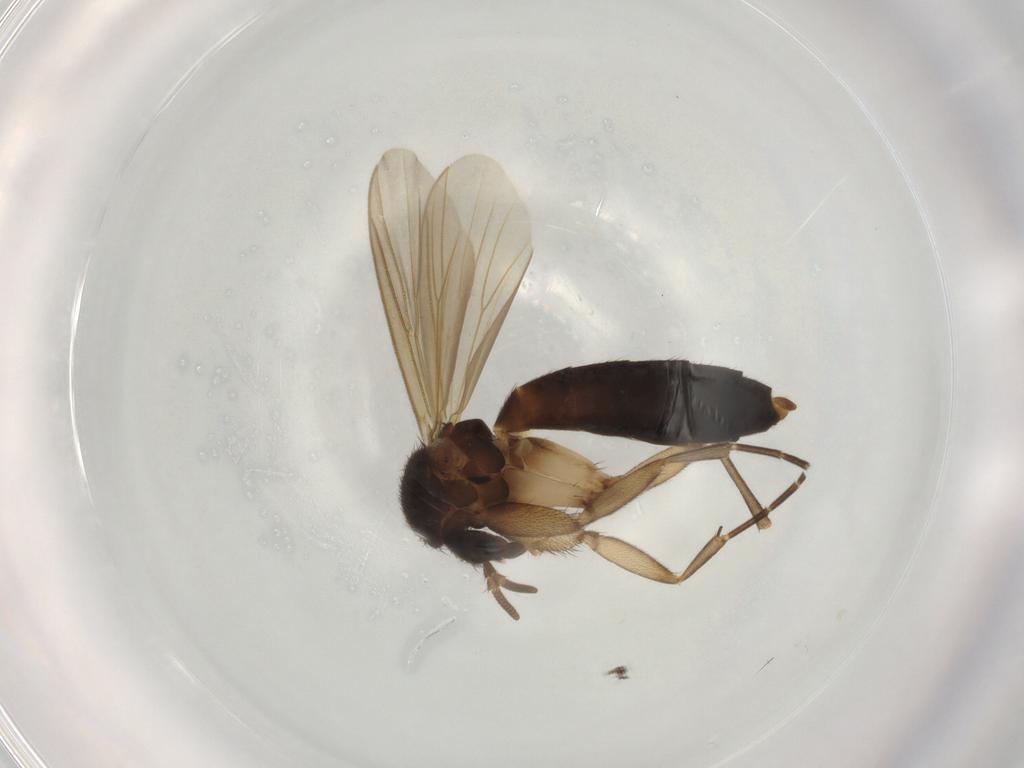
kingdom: Animalia
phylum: Arthropoda
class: Insecta
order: Diptera
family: Mycetophilidae
